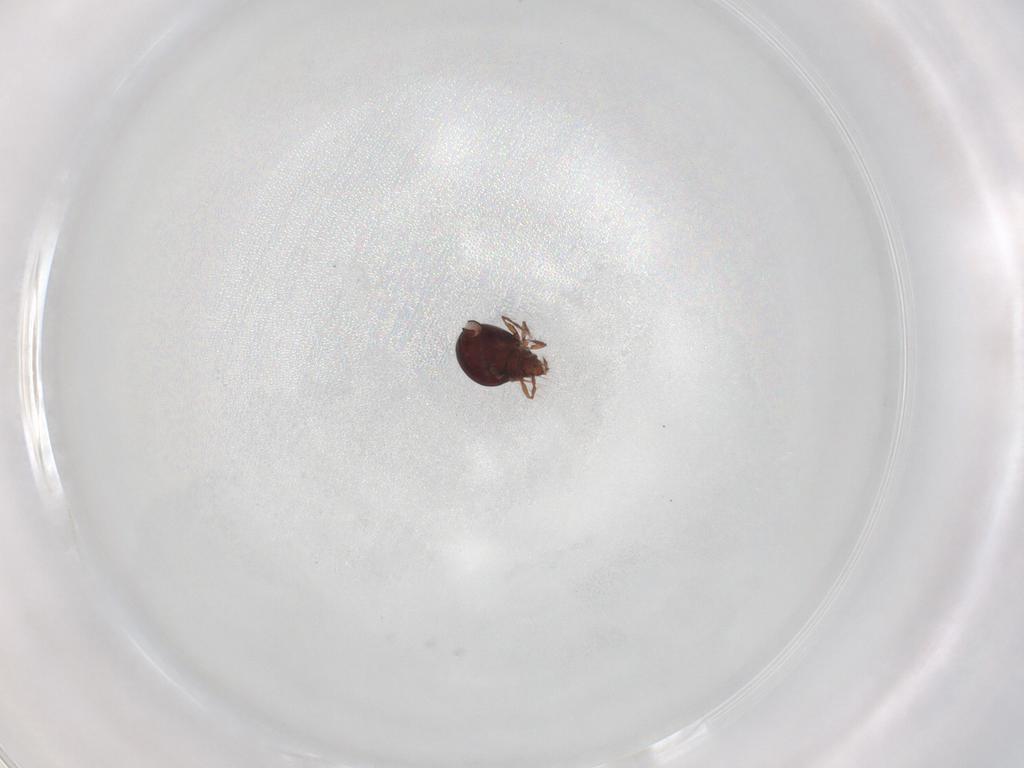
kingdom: Animalia
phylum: Arthropoda
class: Arachnida
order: Sarcoptiformes
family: Ceratoppiidae
